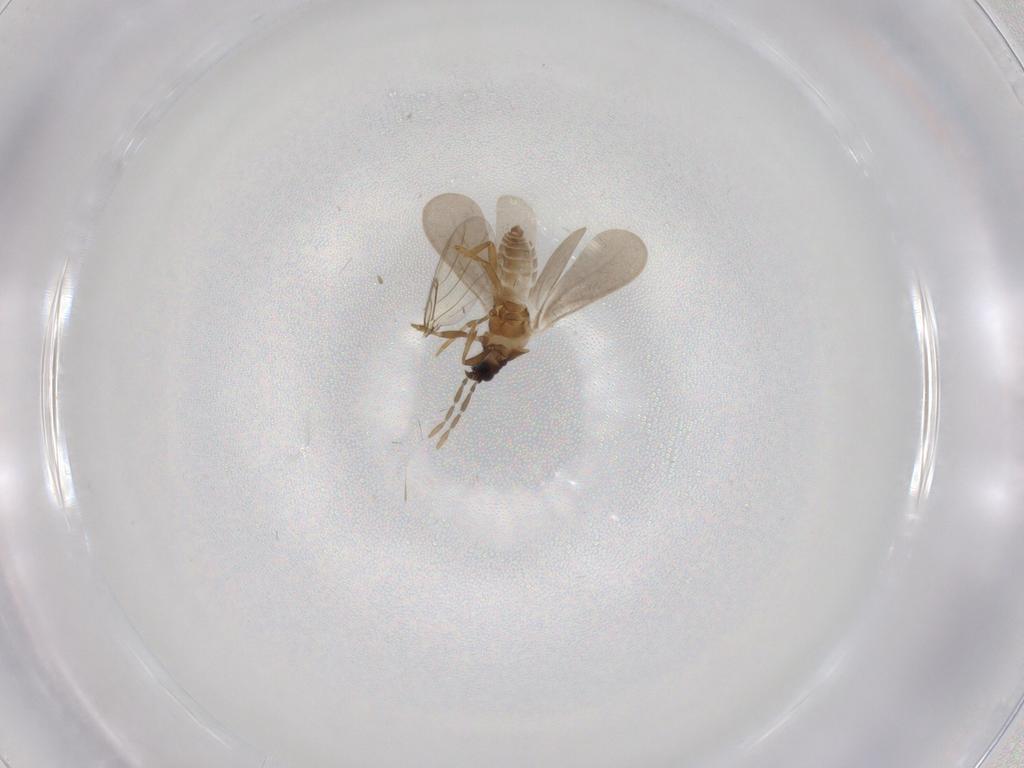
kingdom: Animalia
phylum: Arthropoda
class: Insecta
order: Hemiptera
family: Enicocephalidae
